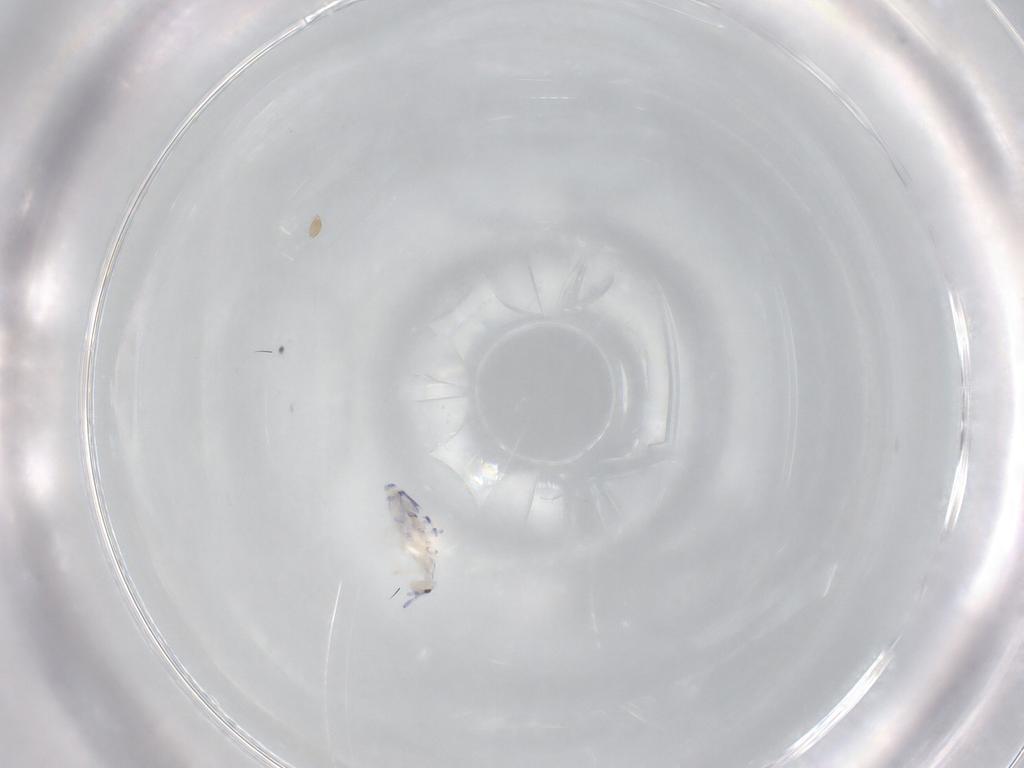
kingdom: Animalia
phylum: Arthropoda
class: Collembola
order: Entomobryomorpha
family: Entomobryidae
